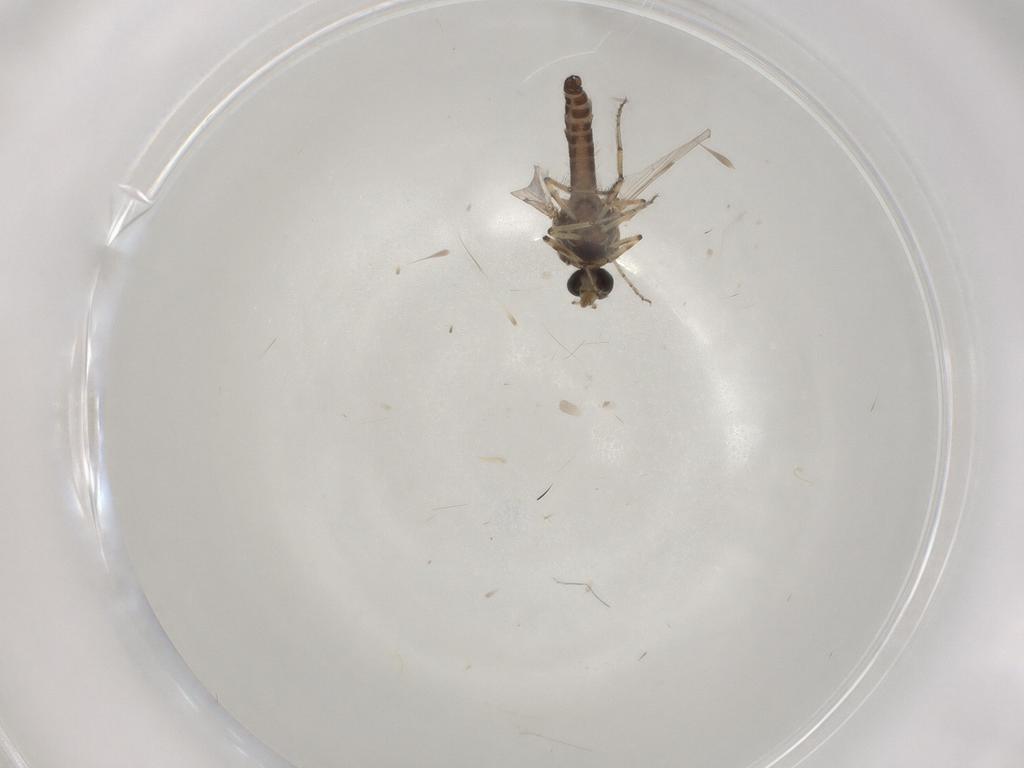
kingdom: Animalia
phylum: Arthropoda
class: Insecta
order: Diptera
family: Ceratopogonidae
